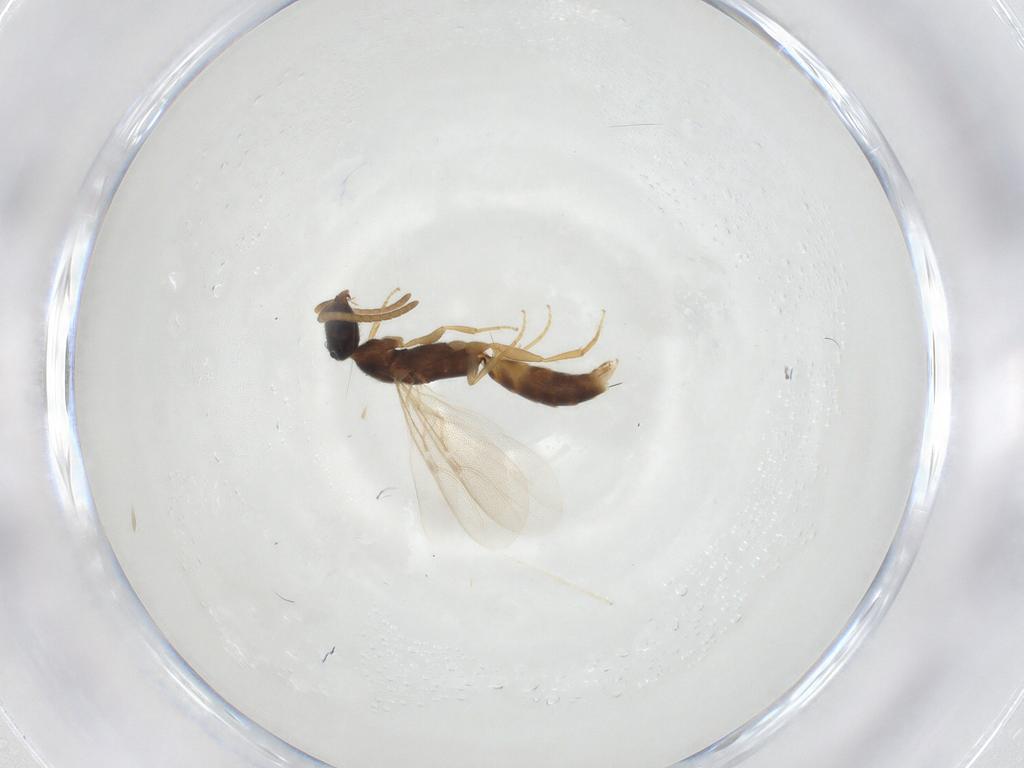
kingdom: Animalia
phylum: Arthropoda
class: Insecta
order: Hymenoptera
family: Bethylidae
